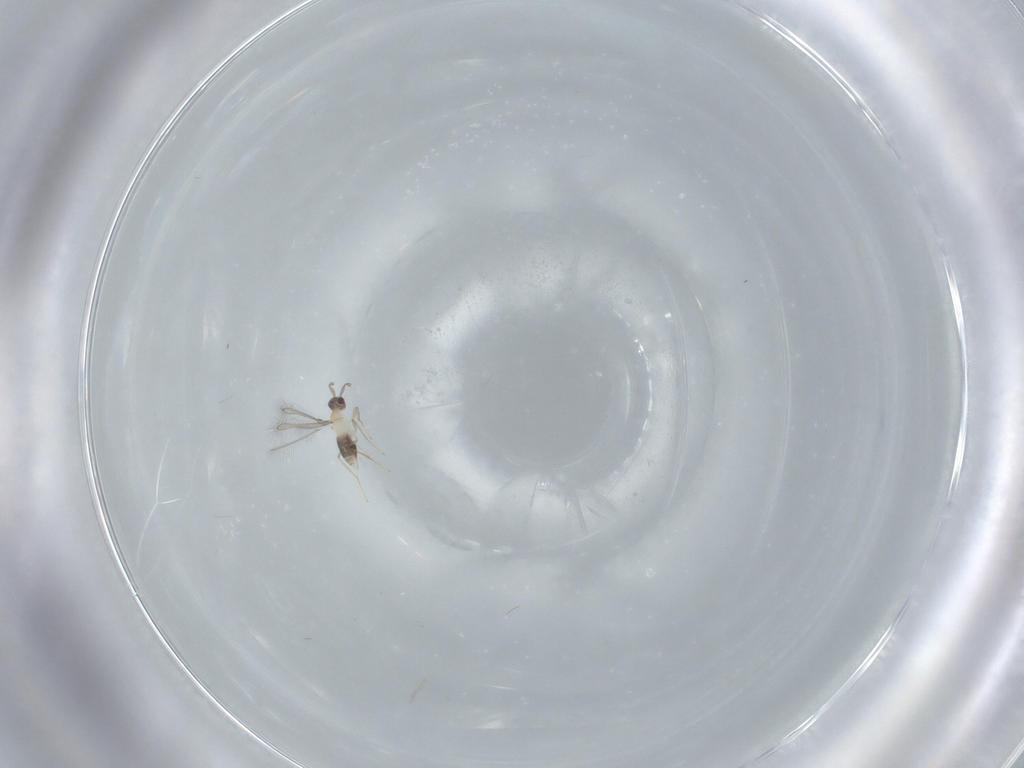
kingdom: Animalia
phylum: Arthropoda
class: Insecta
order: Hymenoptera
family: Mymaridae
